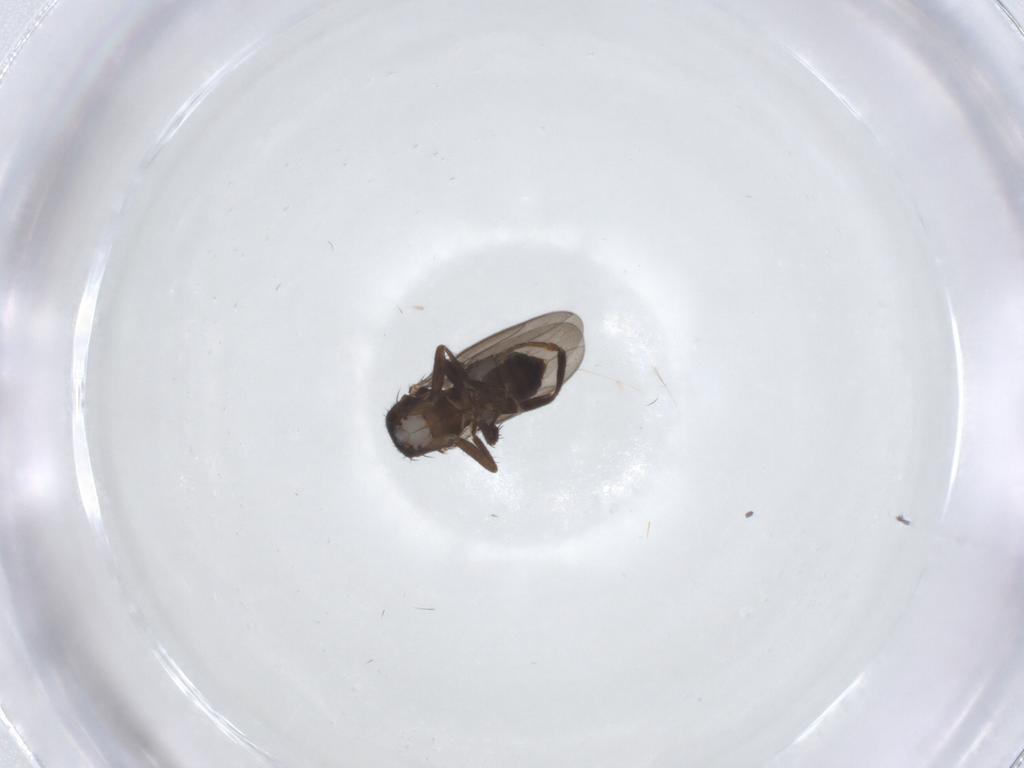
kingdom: Animalia
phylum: Arthropoda
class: Insecta
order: Diptera
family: Sphaeroceridae
